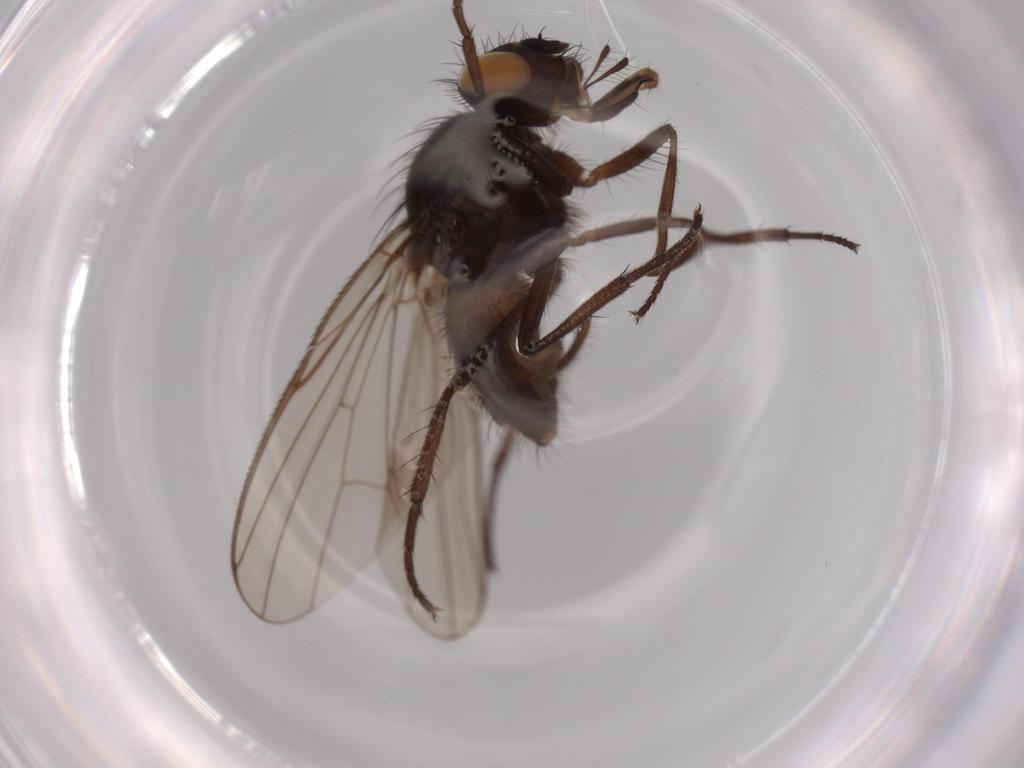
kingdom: Animalia
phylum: Arthropoda
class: Insecta
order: Diptera
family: Anthomyiidae
